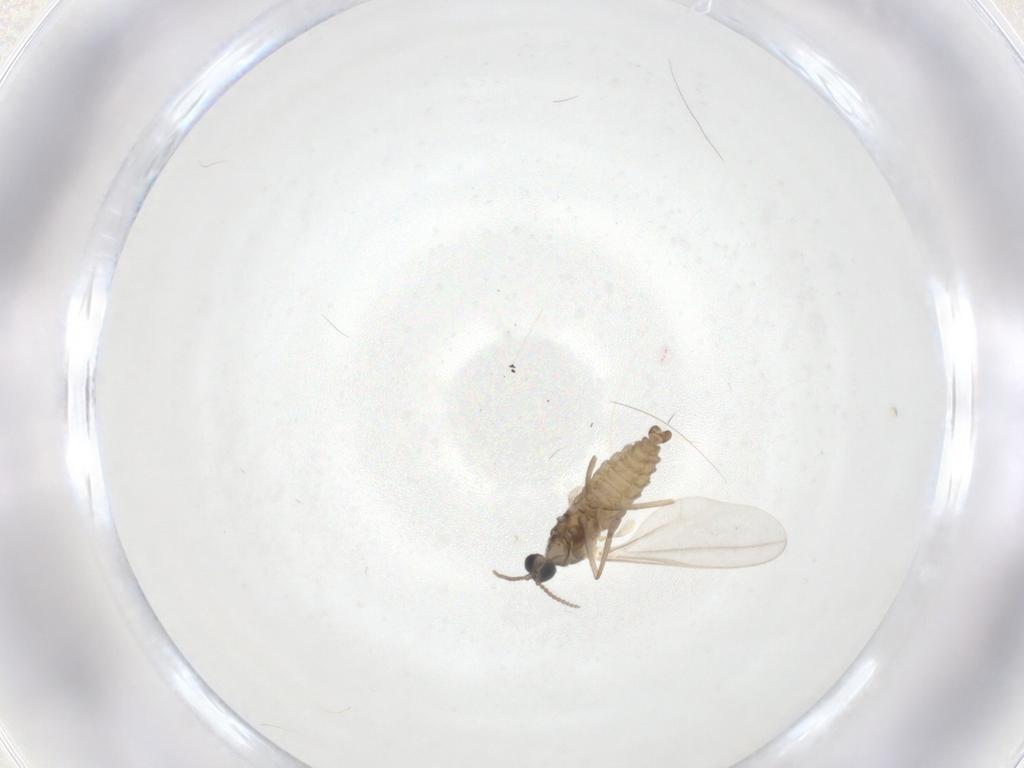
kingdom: Animalia
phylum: Arthropoda
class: Insecta
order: Diptera
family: Cecidomyiidae
